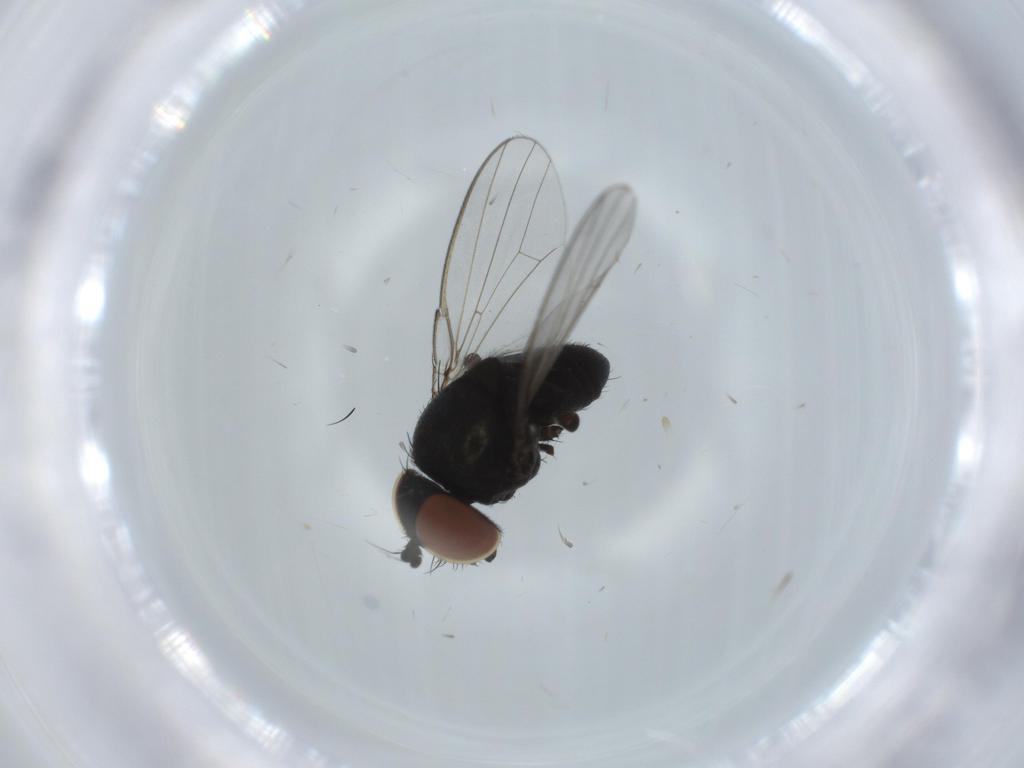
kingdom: Animalia
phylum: Arthropoda
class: Insecta
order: Diptera
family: Milichiidae
